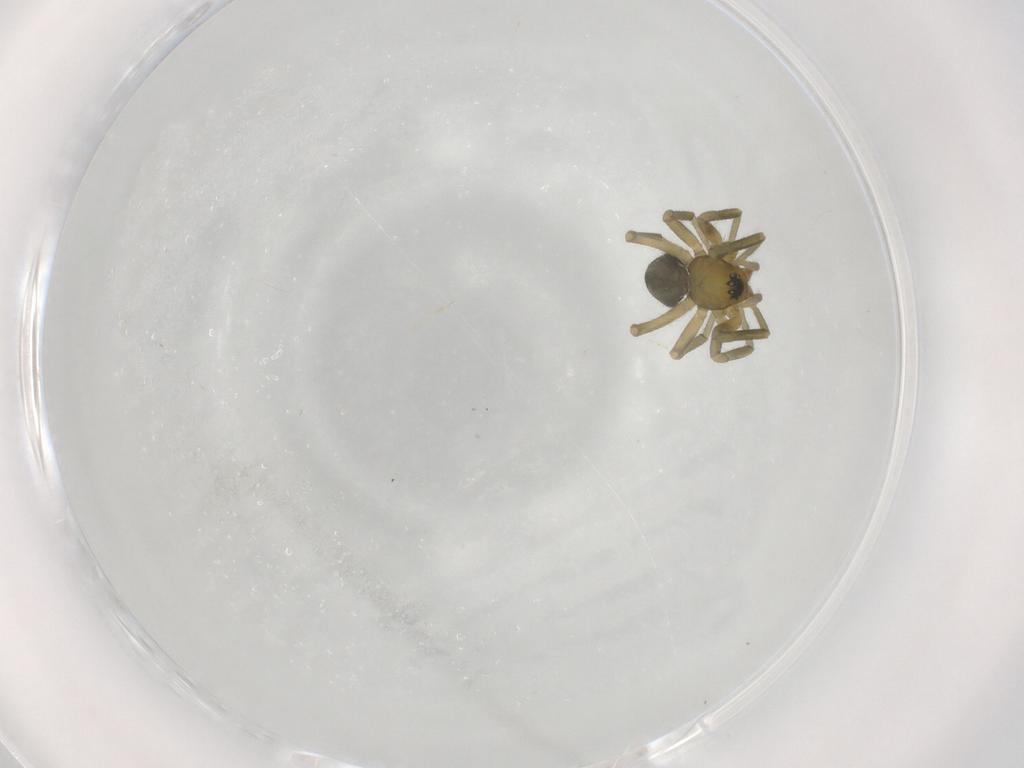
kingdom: Animalia
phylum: Arthropoda
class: Arachnida
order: Araneae
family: Linyphiidae
